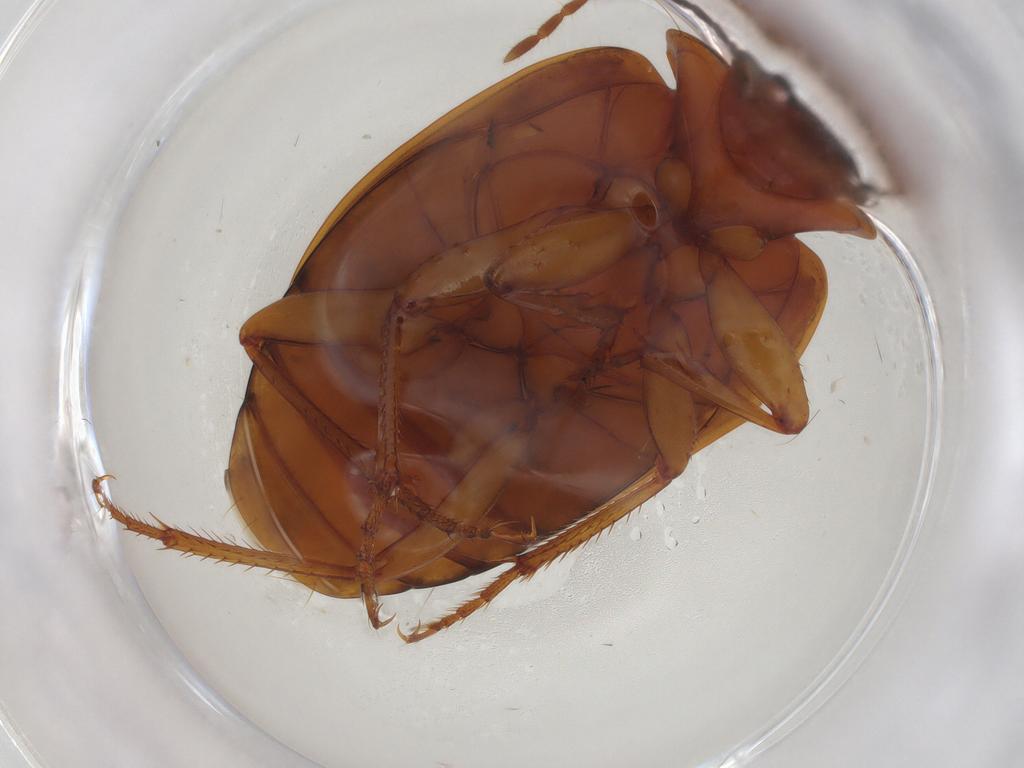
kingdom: Animalia
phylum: Arthropoda
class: Insecta
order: Coleoptera
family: Carabidae
